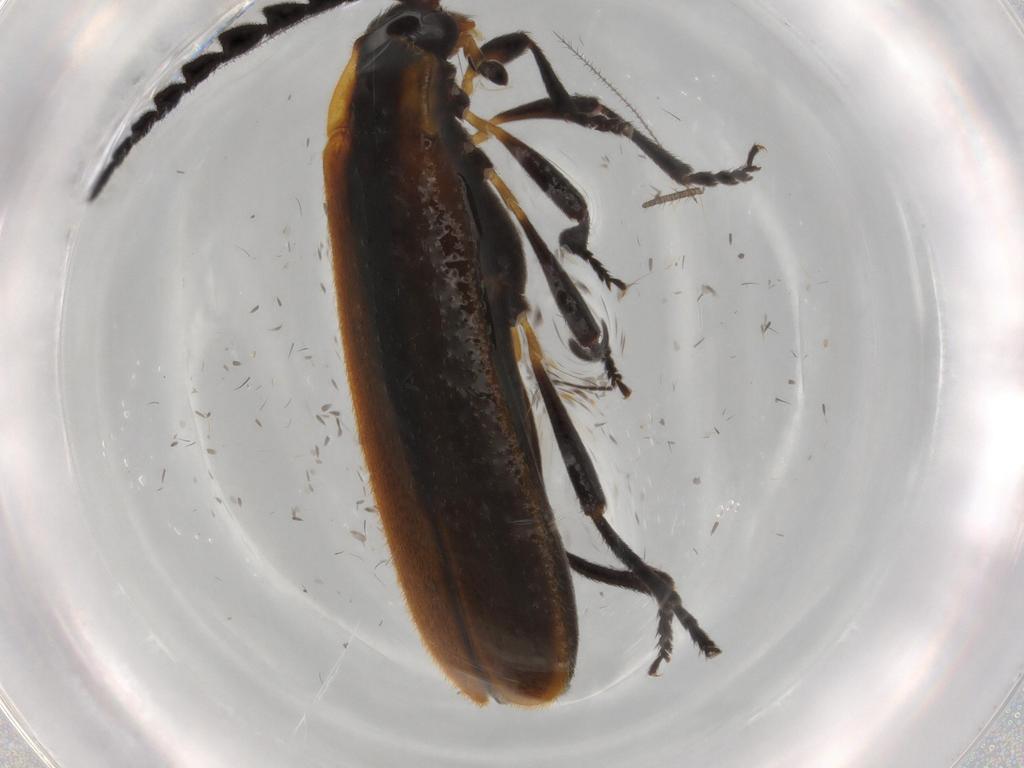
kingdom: Animalia
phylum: Arthropoda
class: Insecta
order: Coleoptera
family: Lycidae
